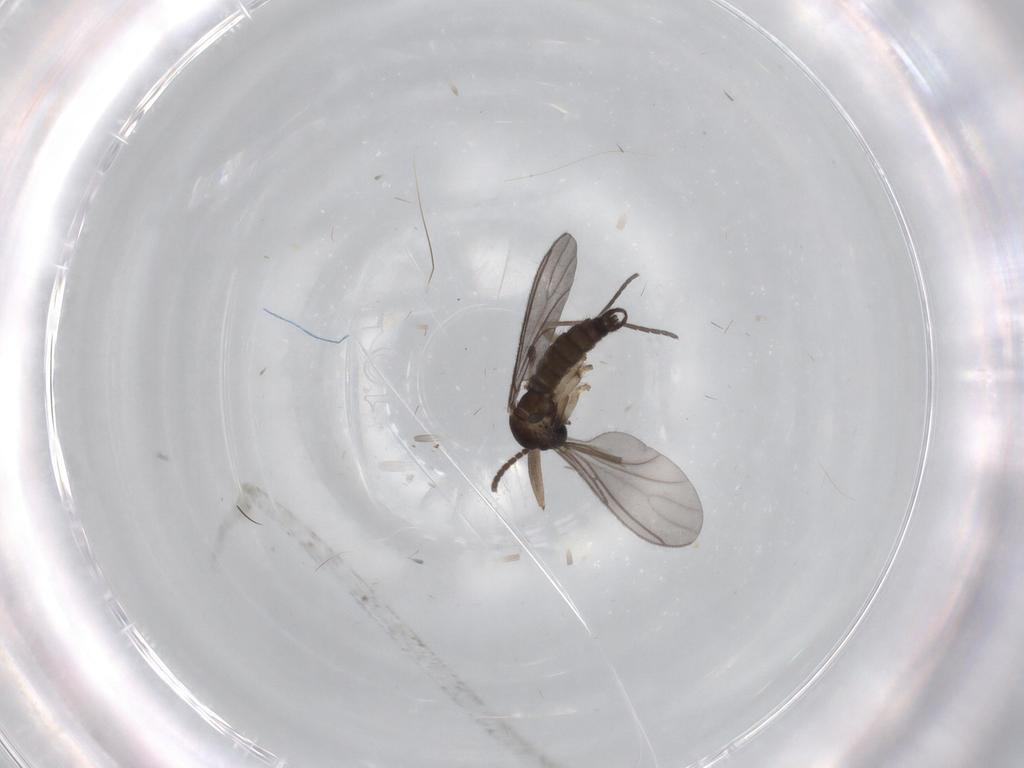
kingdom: Animalia
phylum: Arthropoda
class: Insecta
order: Diptera
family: Sciaridae
